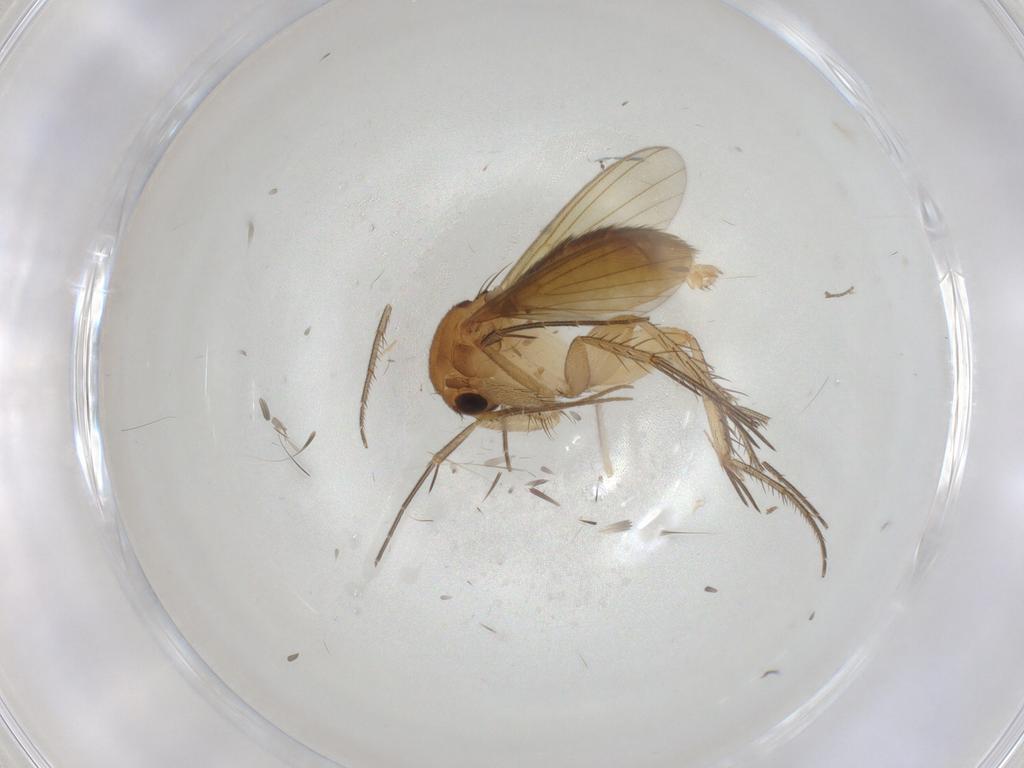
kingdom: Animalia
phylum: Arthropoda
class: Insecta
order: Diptera
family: Mycetophilidae
